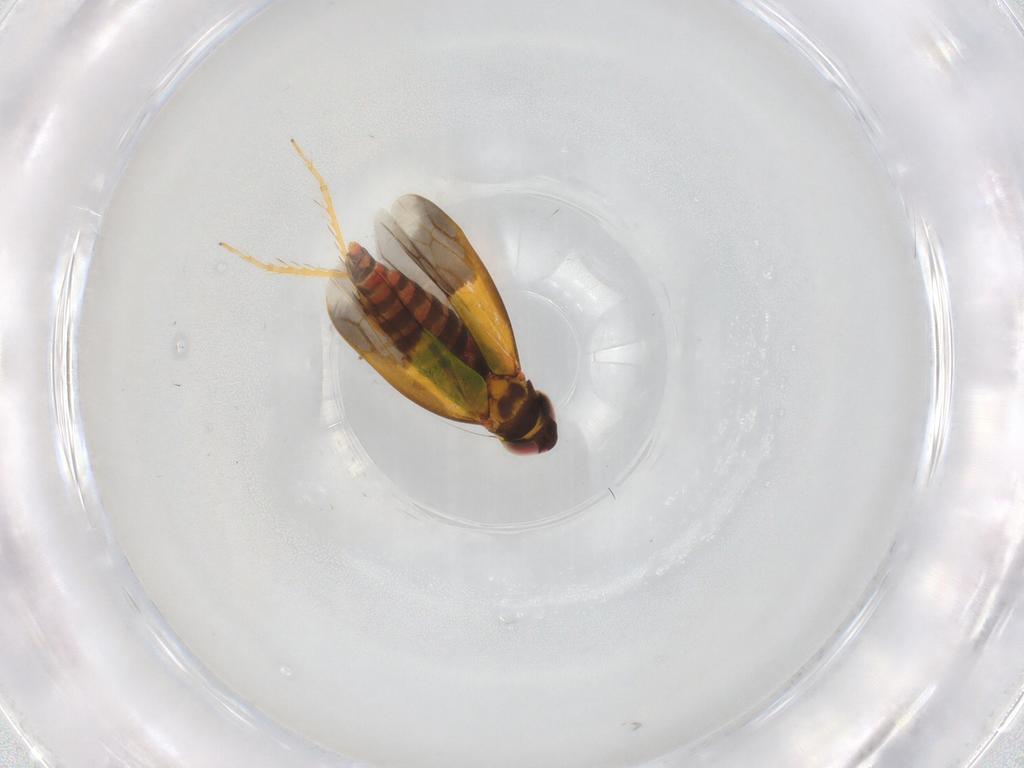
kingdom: Animalia
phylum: Arthropoda
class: Insecta
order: Hemiptera
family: Cicadellidae
